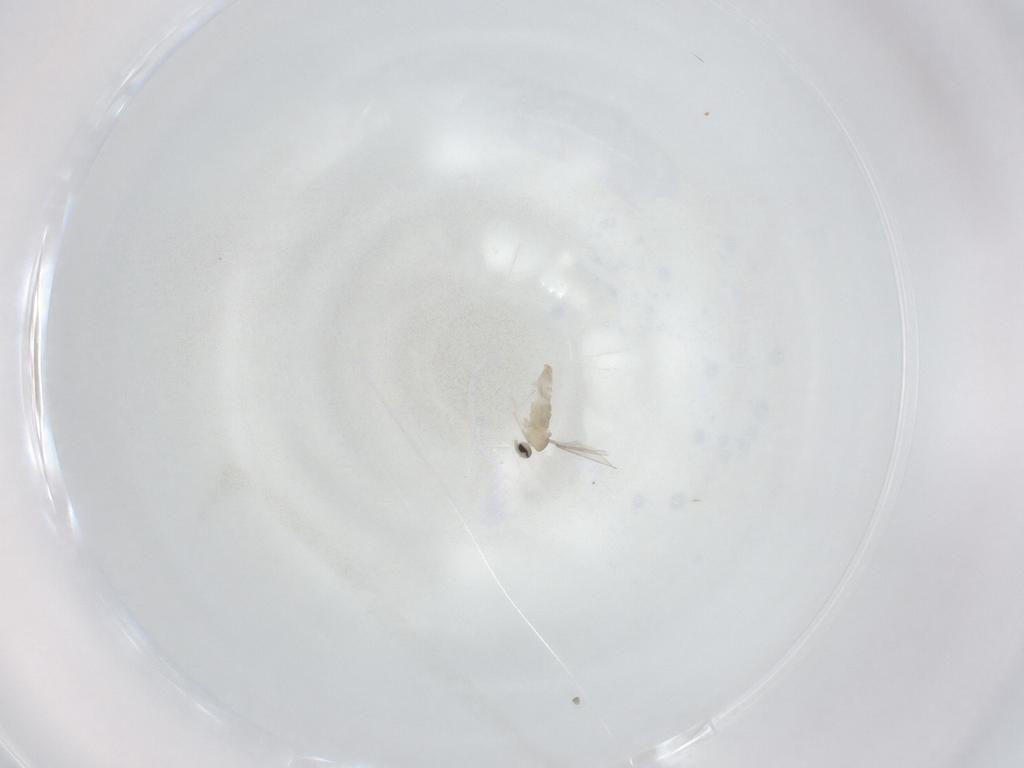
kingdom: Animalia
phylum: Arthropoda
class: Insecta
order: Diptera
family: Cecidomyiidae
